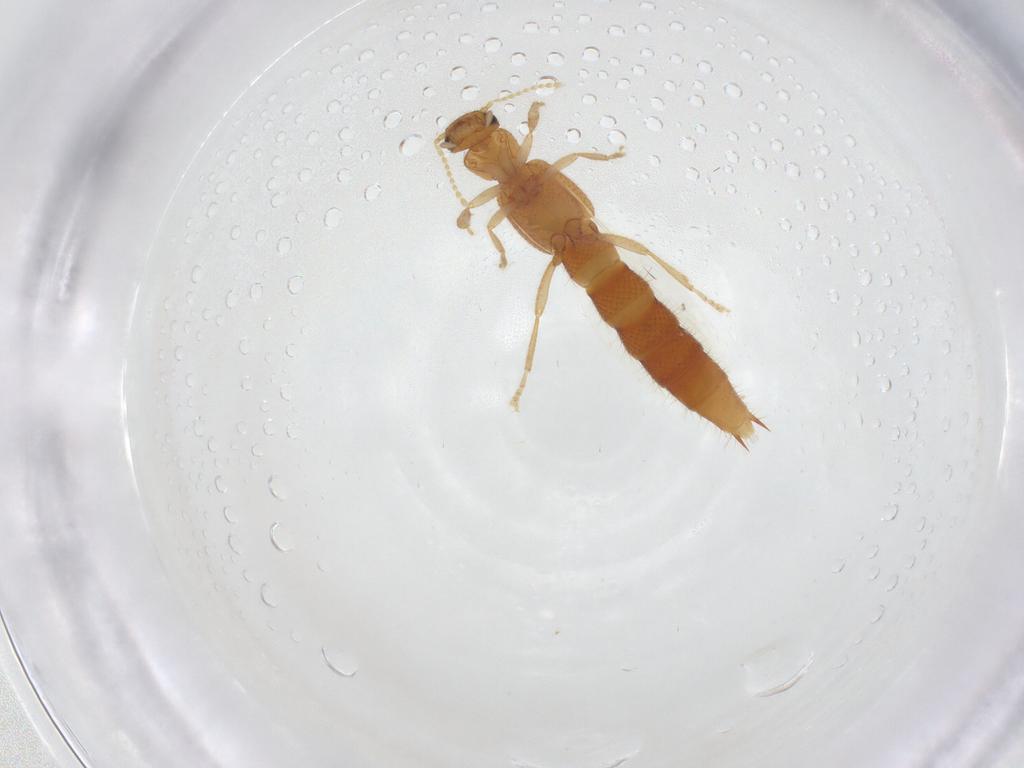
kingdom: Animalia
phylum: Arthropoda
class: Insecta
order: Coleoptera
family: Staphylinidae
